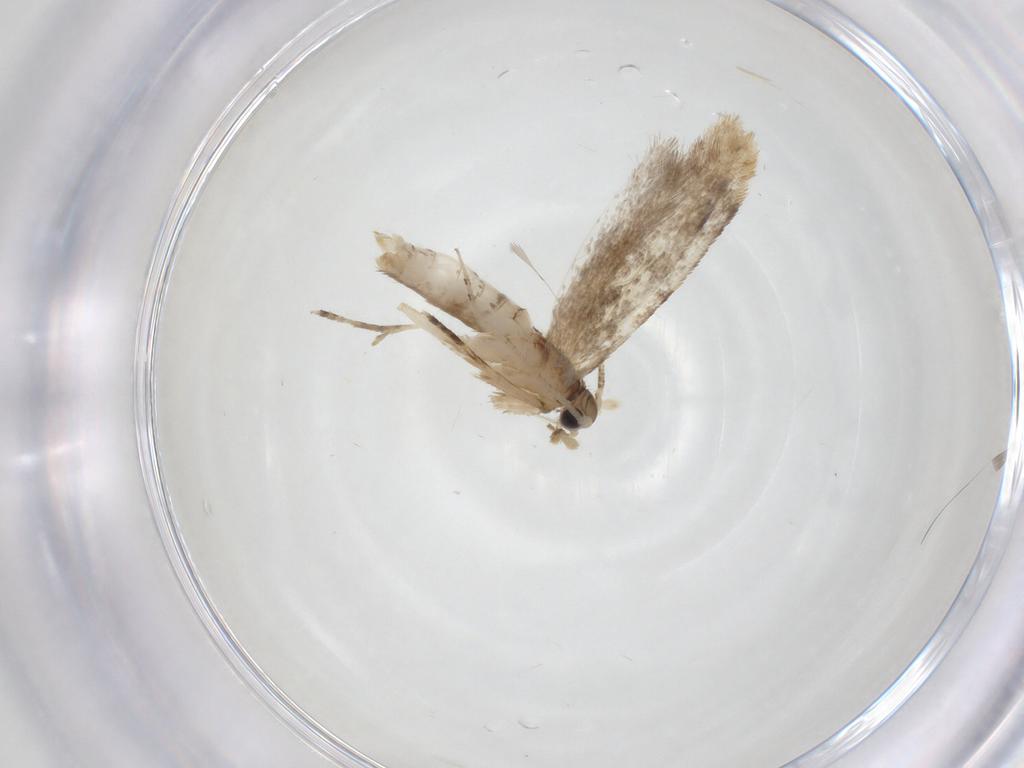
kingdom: Animalia
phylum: Arthropoda
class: Insecta
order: Lepidoptera
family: Dryadaulidae
